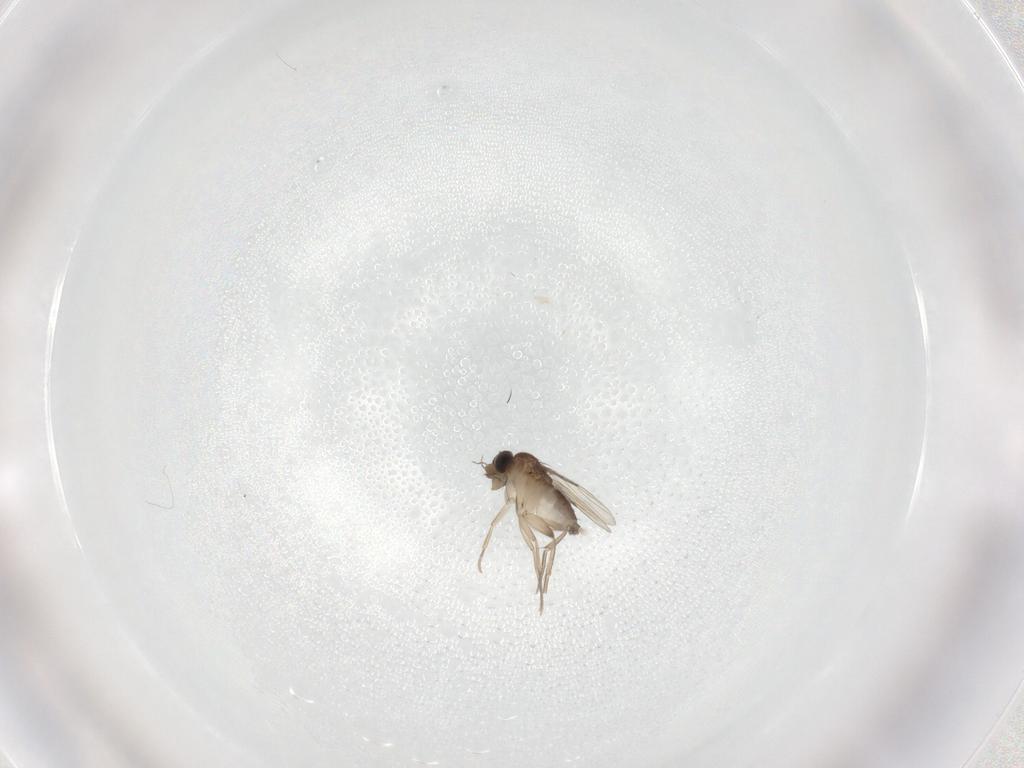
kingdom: Animalia
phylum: Arthropoda
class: Insecta
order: Diptera
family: Phoridae
